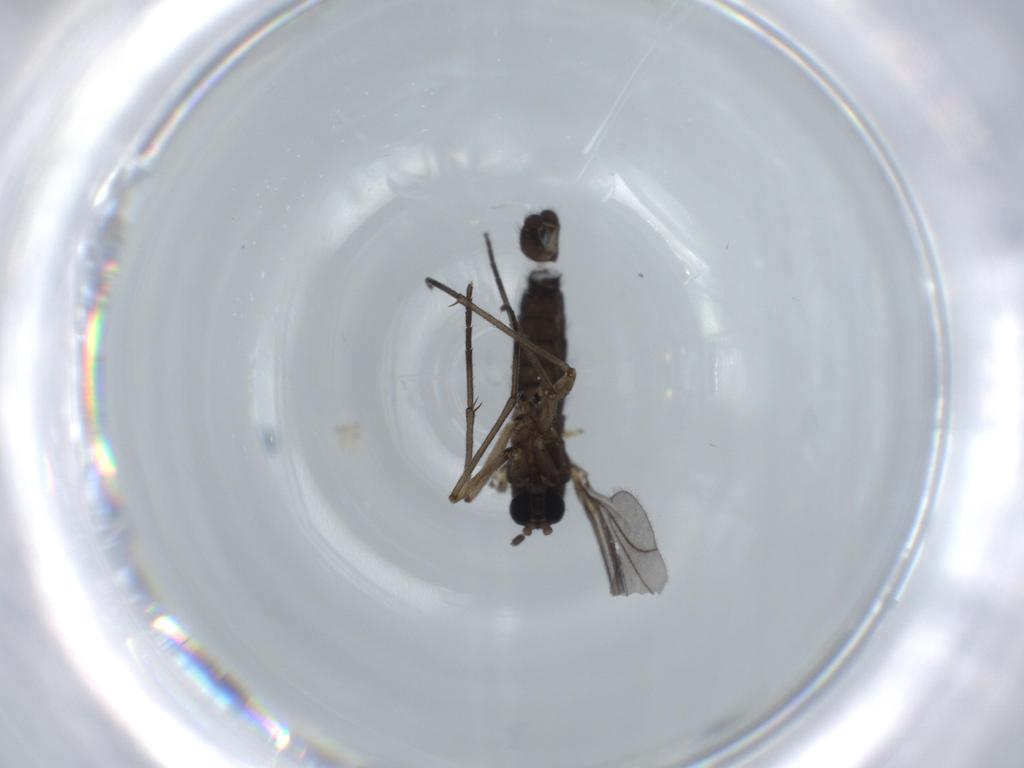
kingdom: Animalia
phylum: Arthropoda
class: Insecta
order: Diptera
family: Sciaridae
